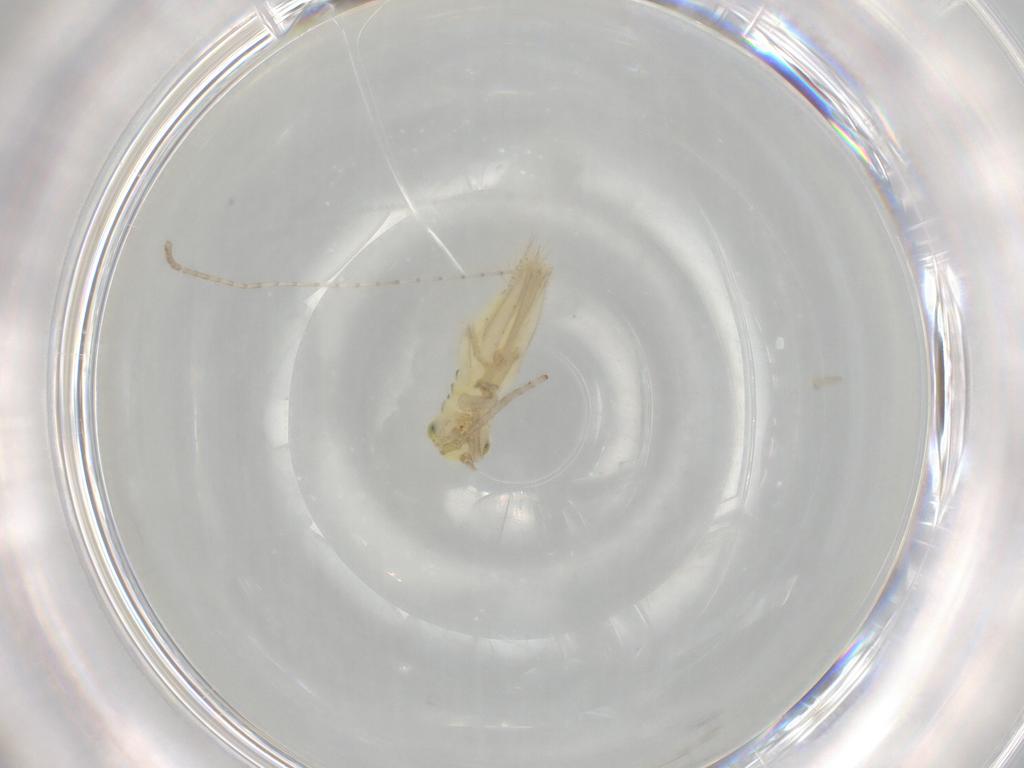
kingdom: Animalia
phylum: Arthropoda
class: Insecta
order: Orthoptera
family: Trigonidiidae
